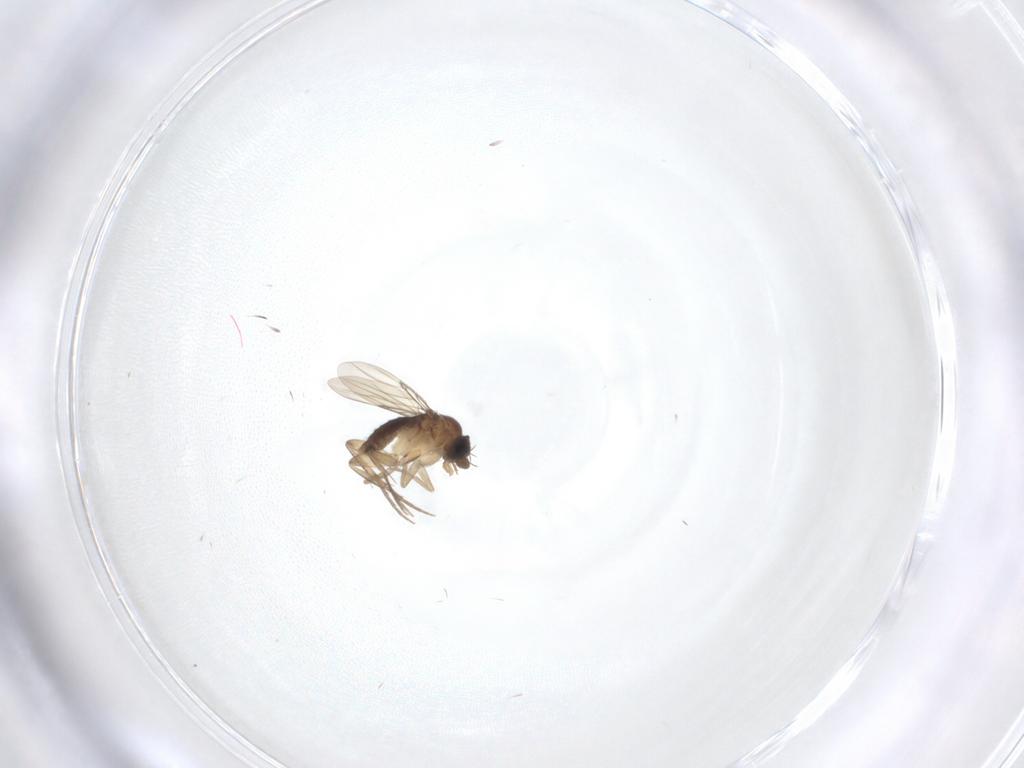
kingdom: Animalia
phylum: Arthropoda
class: Insecta
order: Diptera
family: Phoridae
